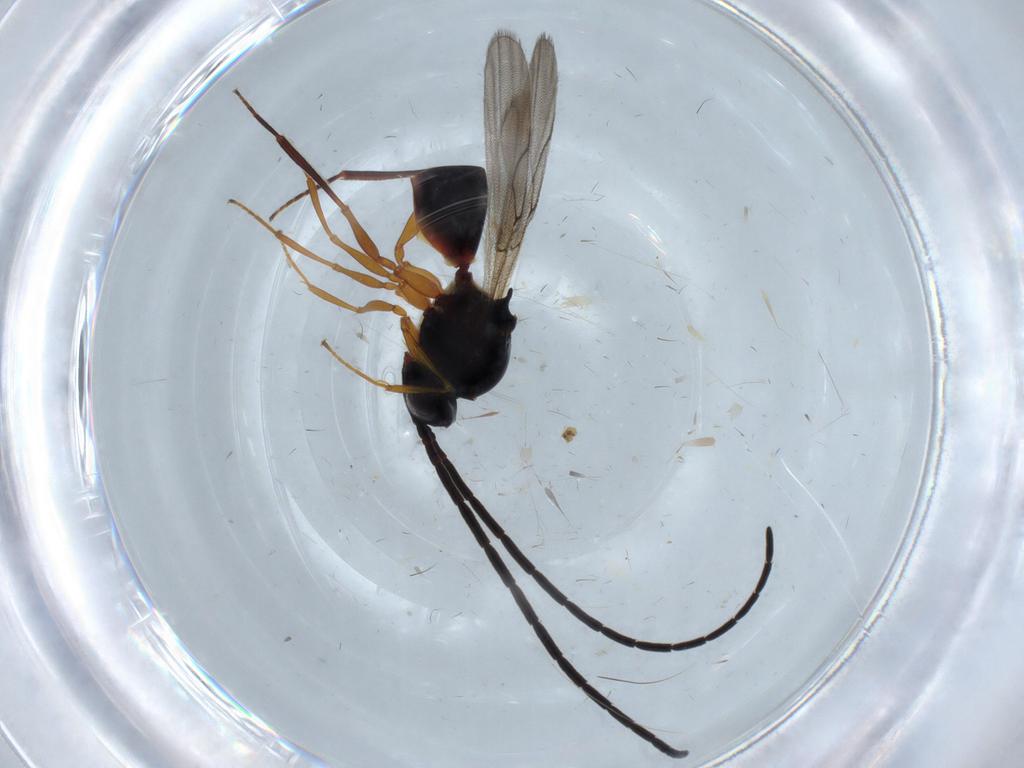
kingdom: Animalia
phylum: Arthropoda
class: Insecta
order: Hymenoptera
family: Figitidae
